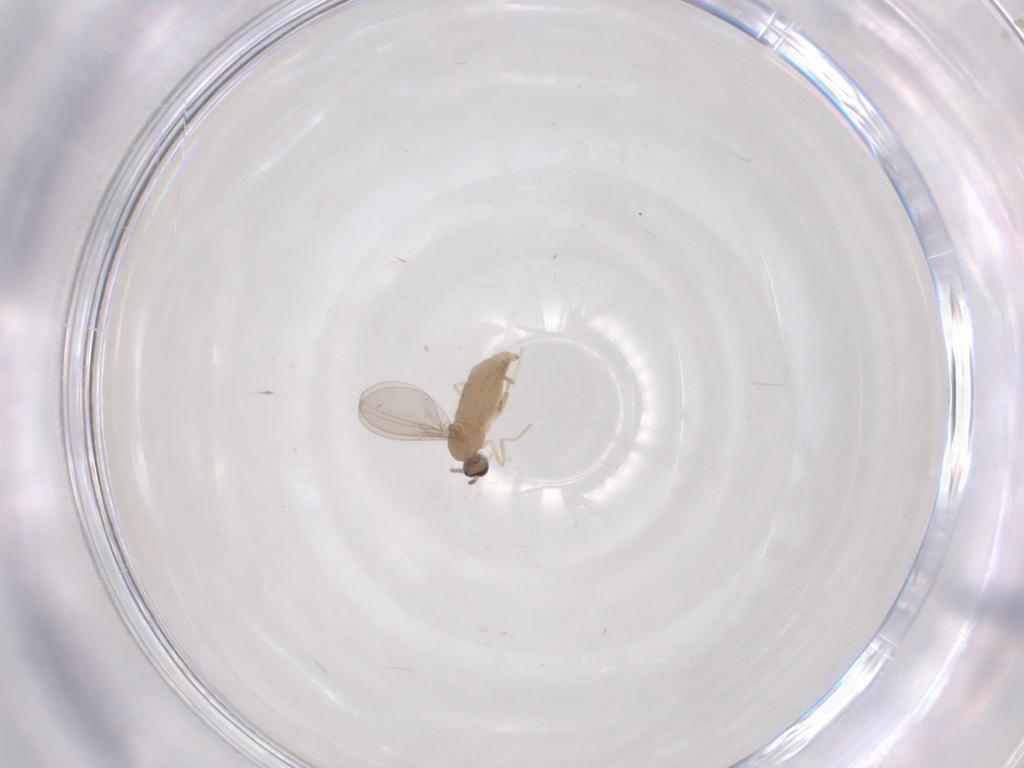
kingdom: Animalia
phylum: Arthropoda
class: Insecta
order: Diptera
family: Cecidomyiidae
